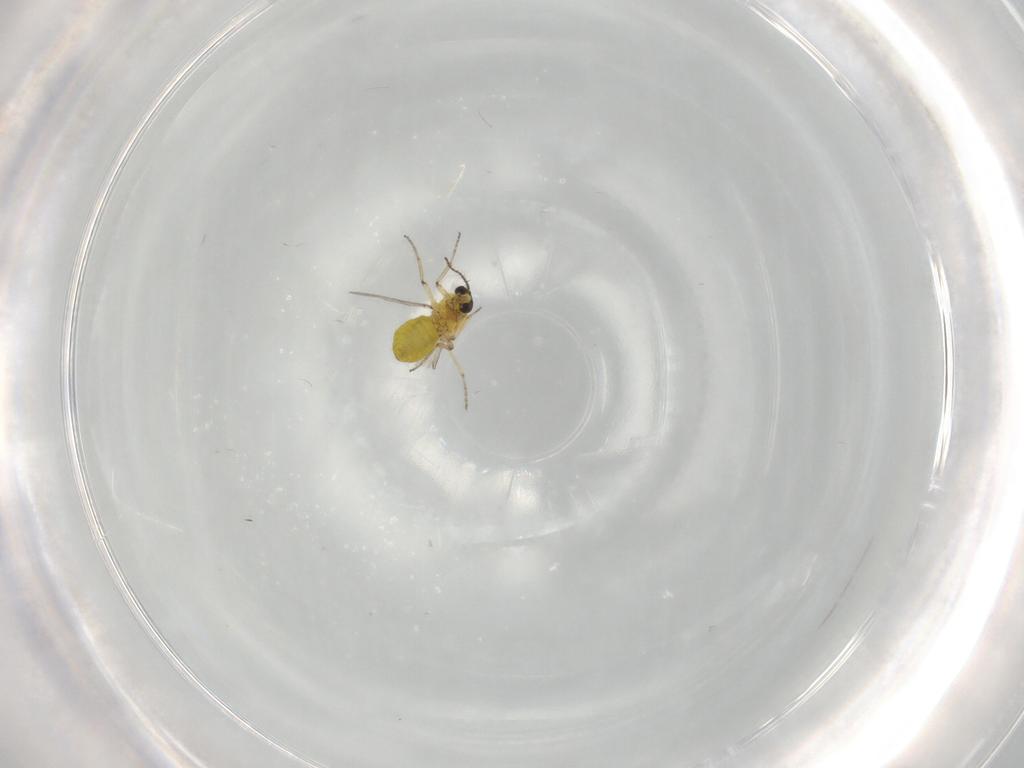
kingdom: Animalia
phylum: Arthropoda
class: Insecta
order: Diptera
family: Ceratopogonidae
